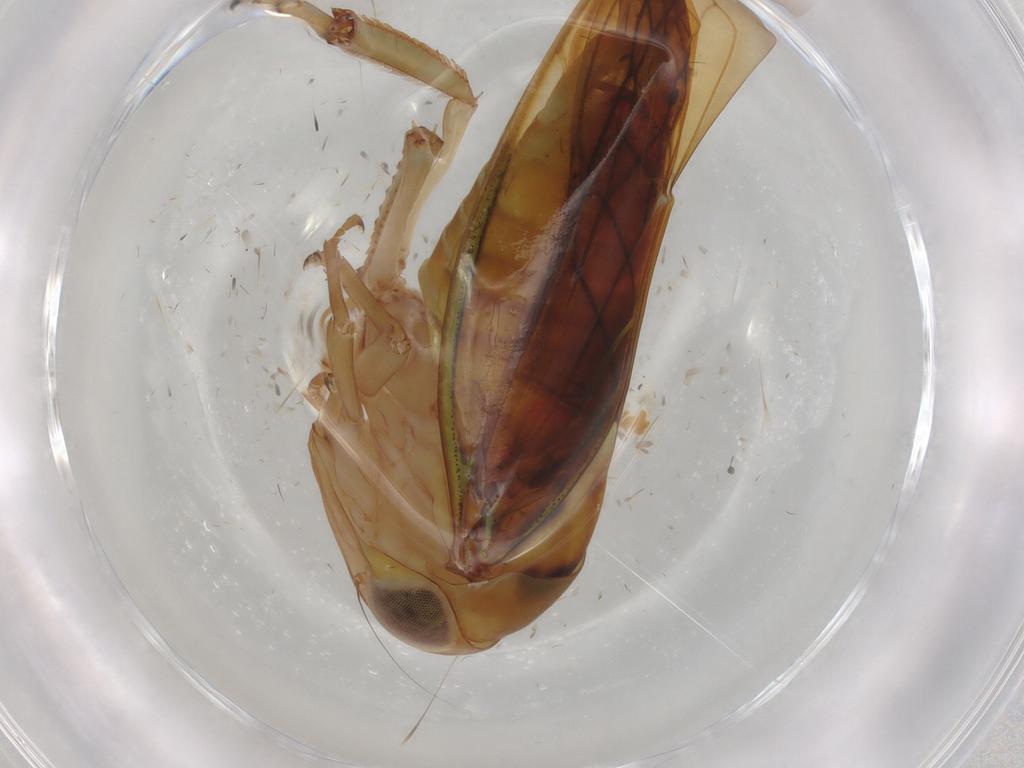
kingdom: Animalia
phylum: Arthropoda
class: Insecta
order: Hemiptera
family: Cicadellidae
